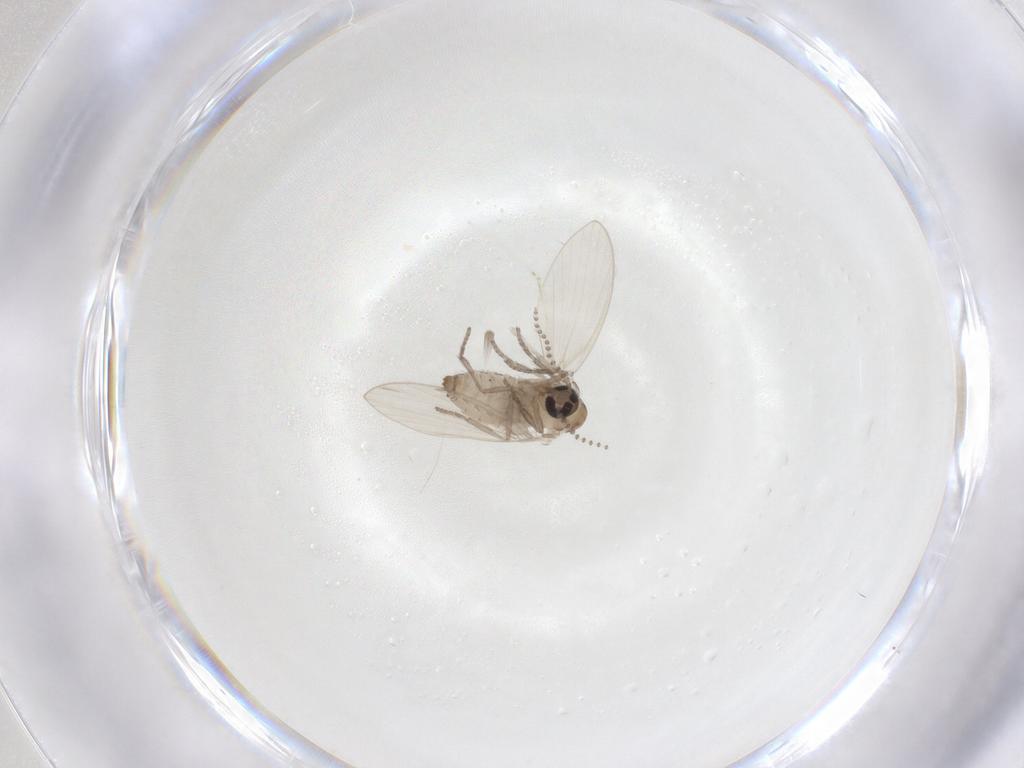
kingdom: Animalia
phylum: Arthropoda
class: Insecta
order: Diptera
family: Psychodidae
